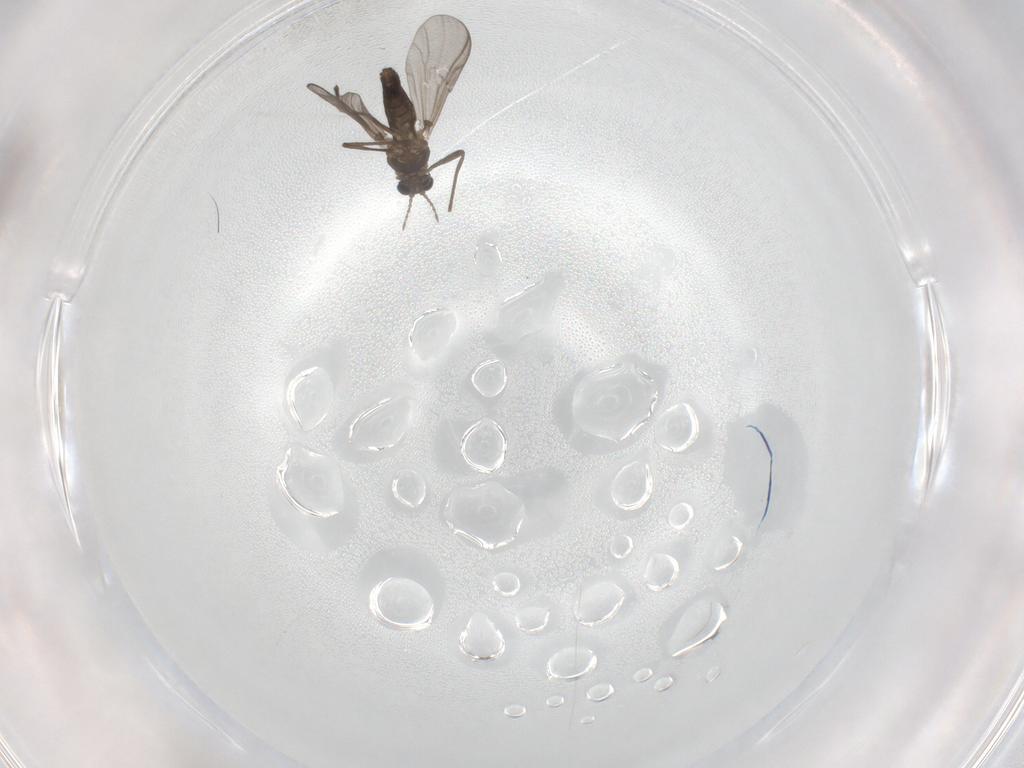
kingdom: Animalia
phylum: Arthropoda
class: Insecta
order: Diptera
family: Chironomidae
